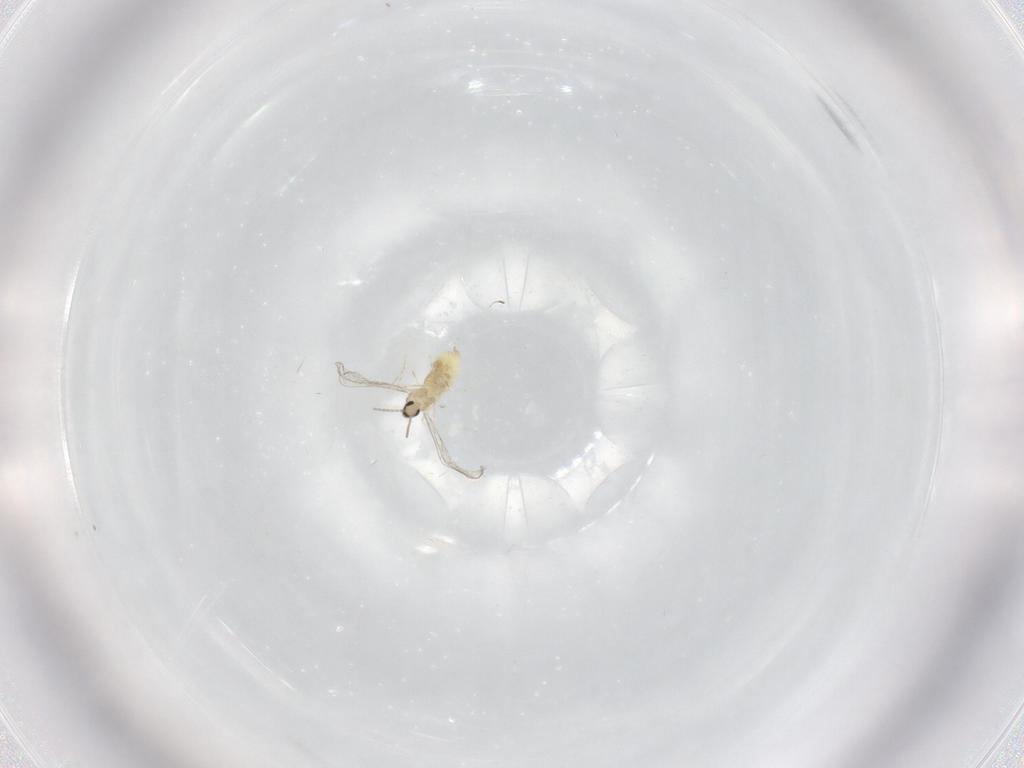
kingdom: Animalia
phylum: Arthropoda
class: Insecta
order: Diptera
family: Cecidomyiidae
